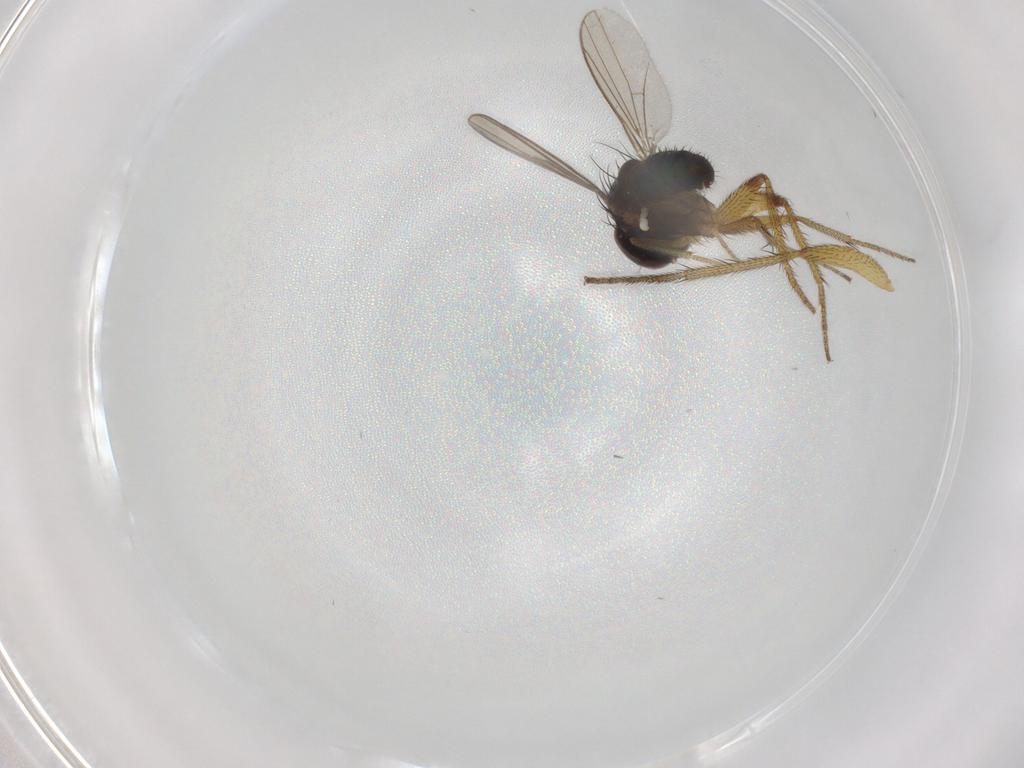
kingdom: Animalia
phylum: Arthropoda
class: Insecta
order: Diptera
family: Dolichopodidae
